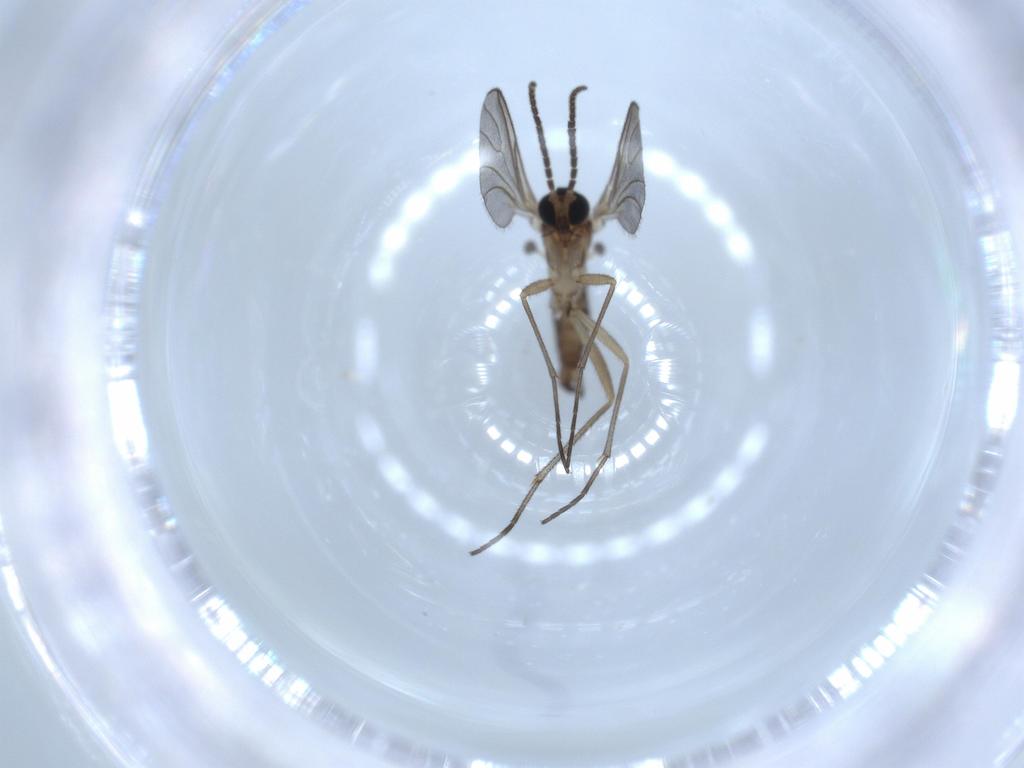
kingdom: Animalia
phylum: Arthropoda
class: Insecta
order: Diptera
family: Sciaridae
